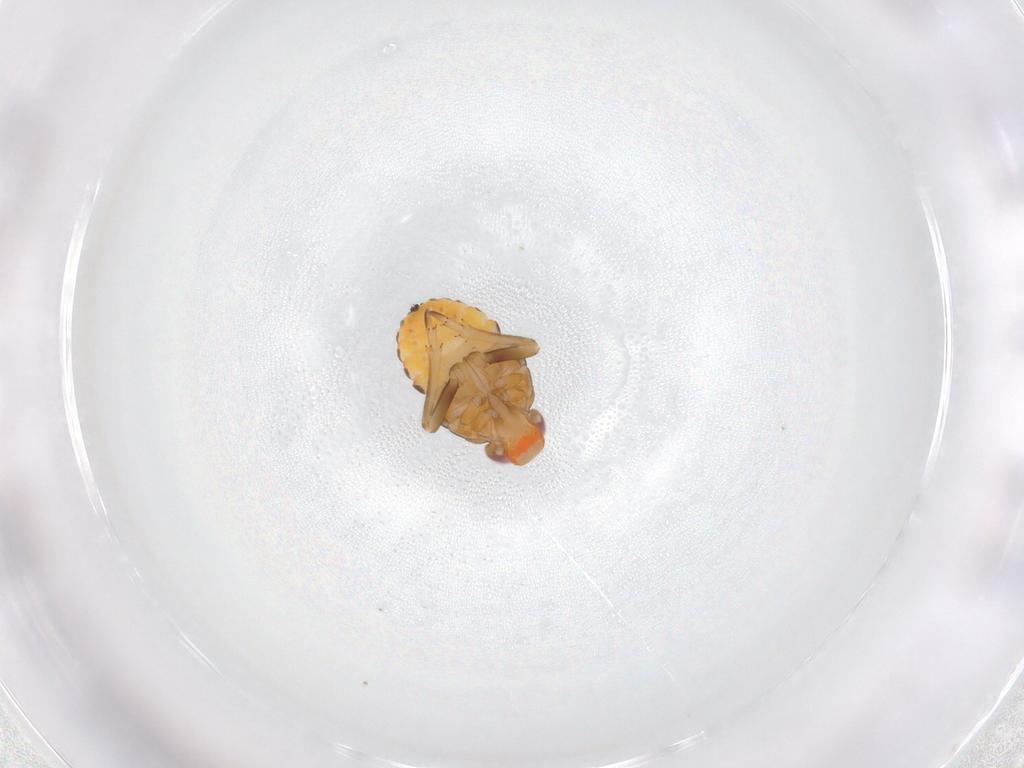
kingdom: Animalia
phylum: Arthropoda
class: Insecta
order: Hemiptera
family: Fulgoroidea_incertae_sedis
